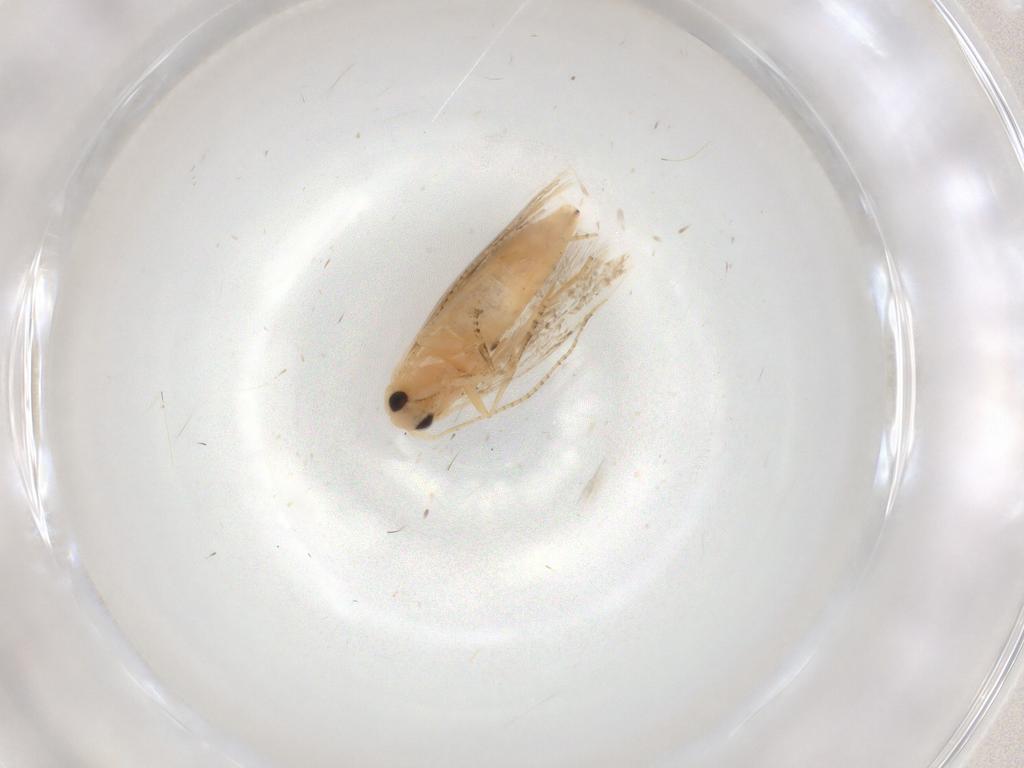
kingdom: Animalia
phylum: Arthropoda
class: Insecta
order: Lepidoptera
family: Bucculatricidae
